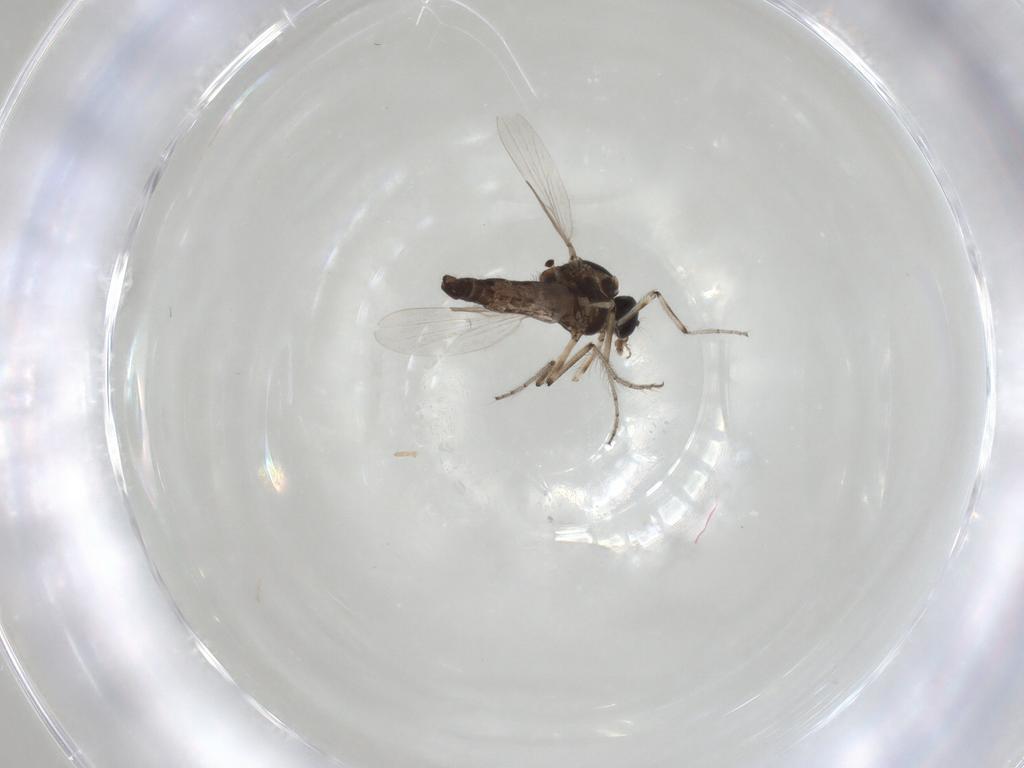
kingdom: Animalia
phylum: Arthropoda
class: Insecta
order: Diptera
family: Ceratopogonidae
